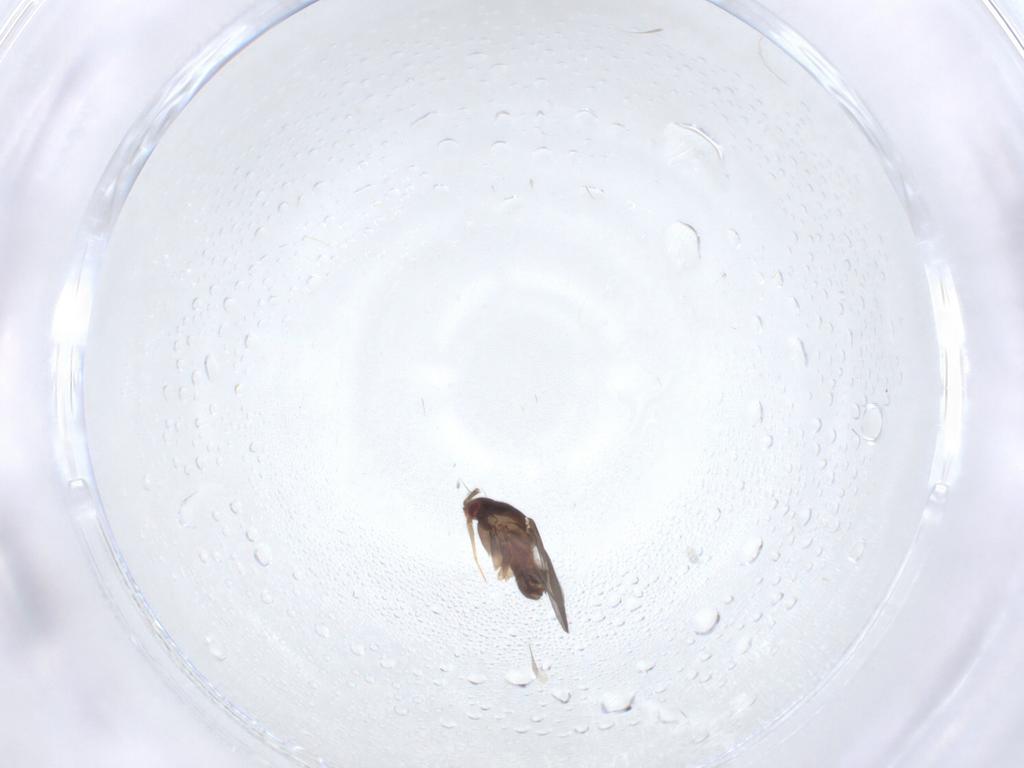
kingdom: Animalia
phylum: Arthropoda
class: Insecta
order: Hemiptera
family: Ceratocombidae
